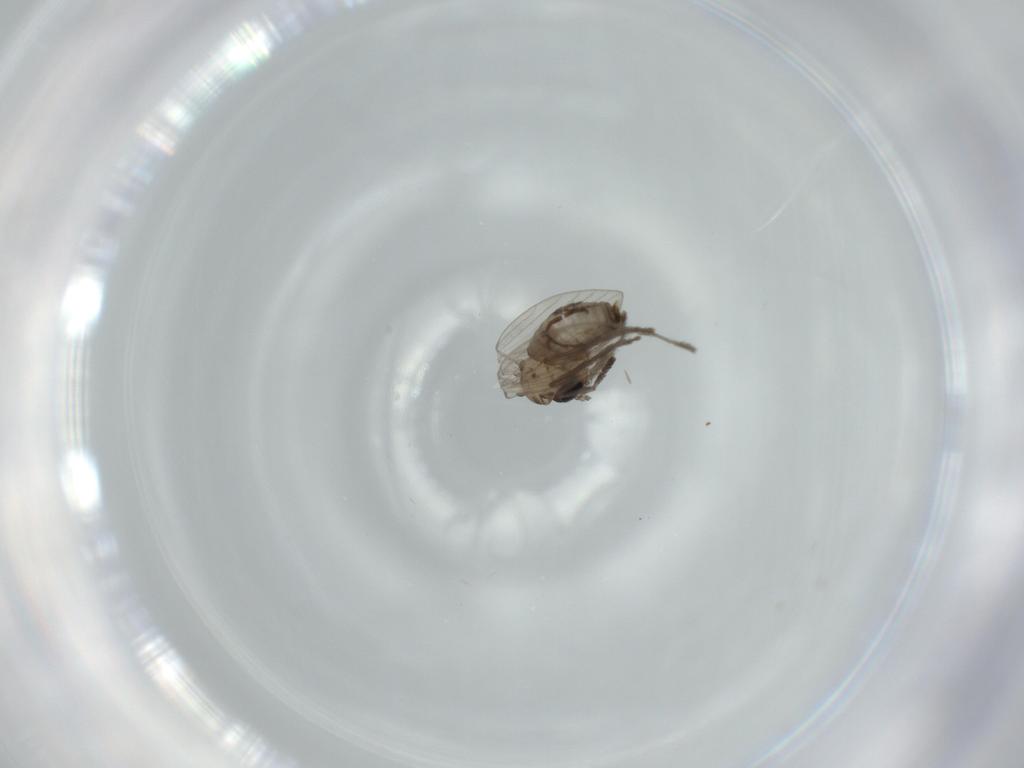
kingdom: Animalia
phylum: Arthropoda
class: Insecta
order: Diptera
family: Psychodidae
